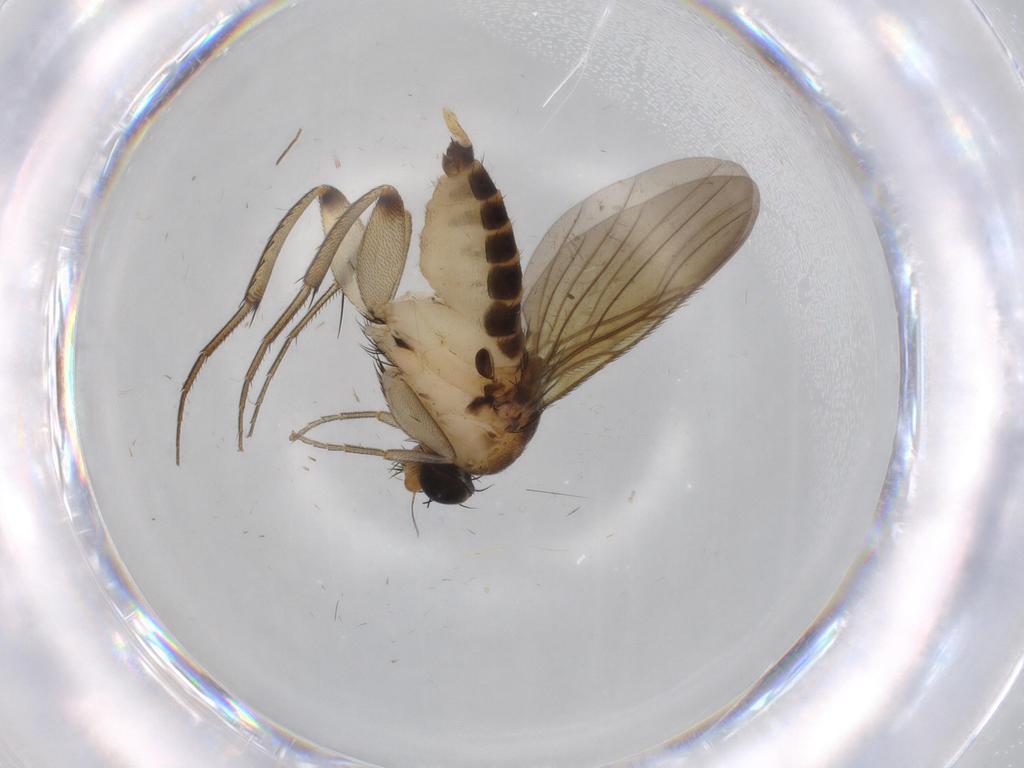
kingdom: Animalia
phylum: Arthropoda
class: Insecta
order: Diptera
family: Phoridae
